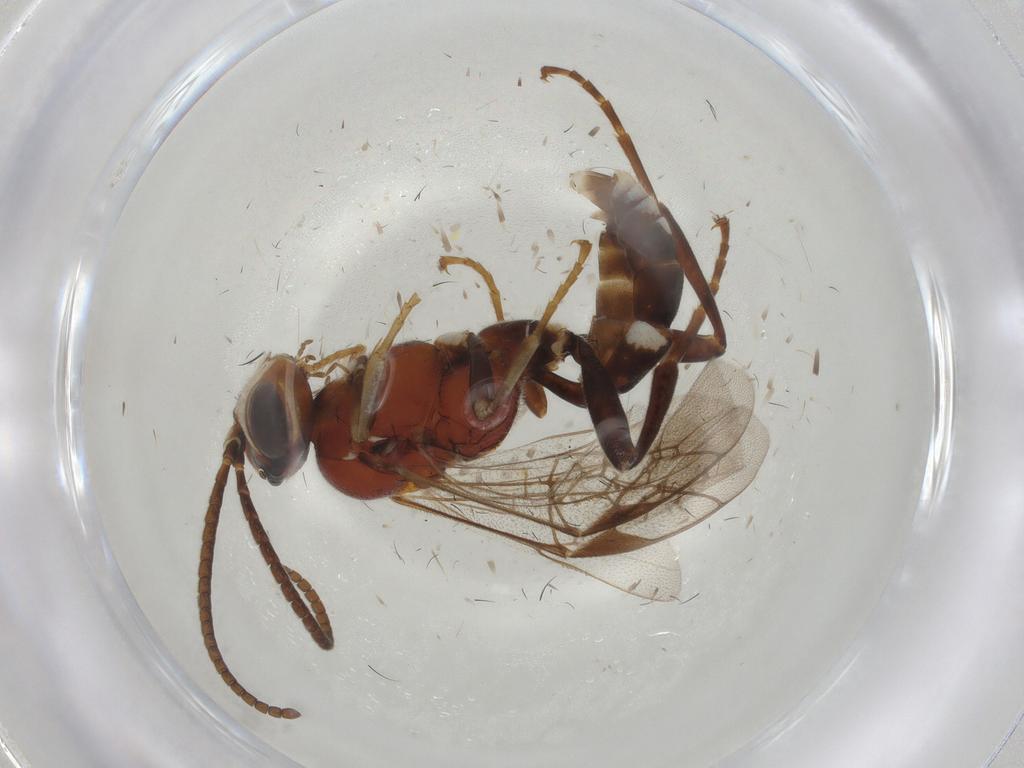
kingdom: Animalia
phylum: Arthropoda
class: Insecta
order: Hymenoptera
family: Ichneumonidae
